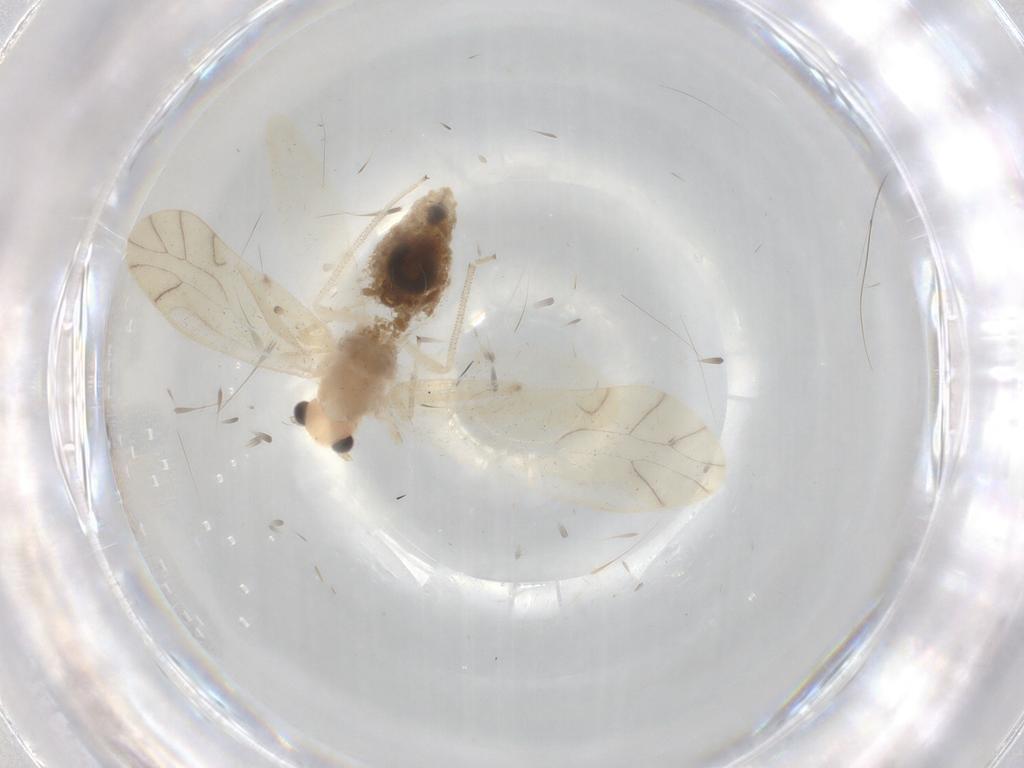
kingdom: Animalia
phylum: Arthropoda
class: Insecta
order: Psocodea
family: Caeciliusidae
